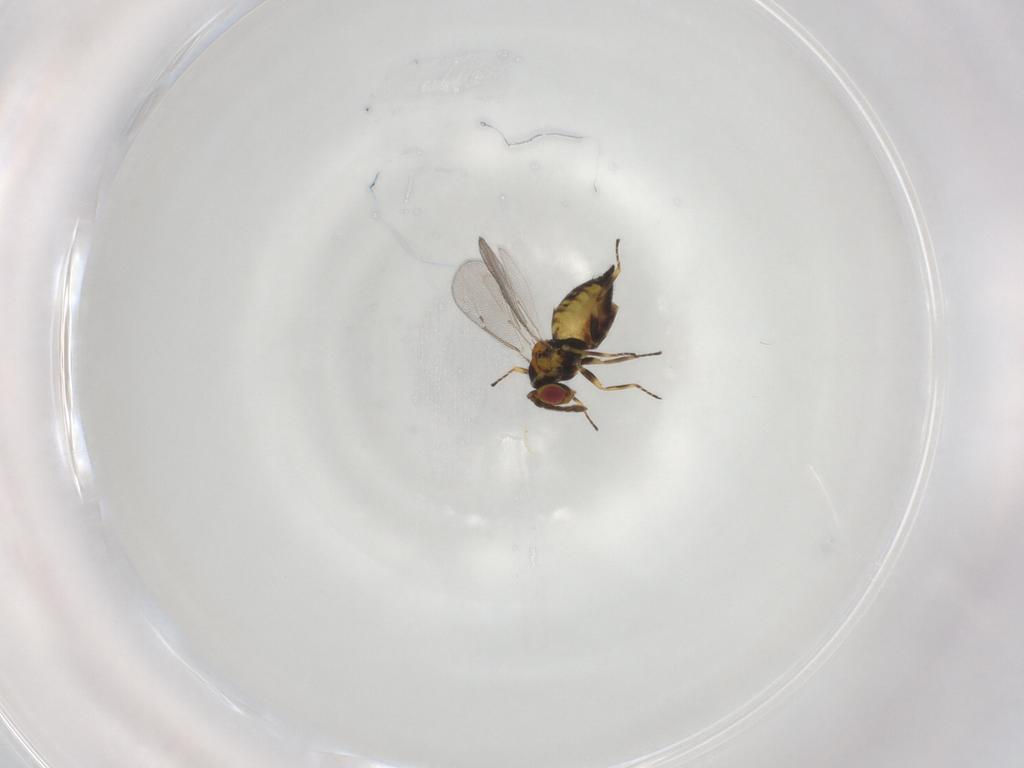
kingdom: Animalia
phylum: Arthropoda
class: Insecta
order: Hymenoptera
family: Eulophidae
